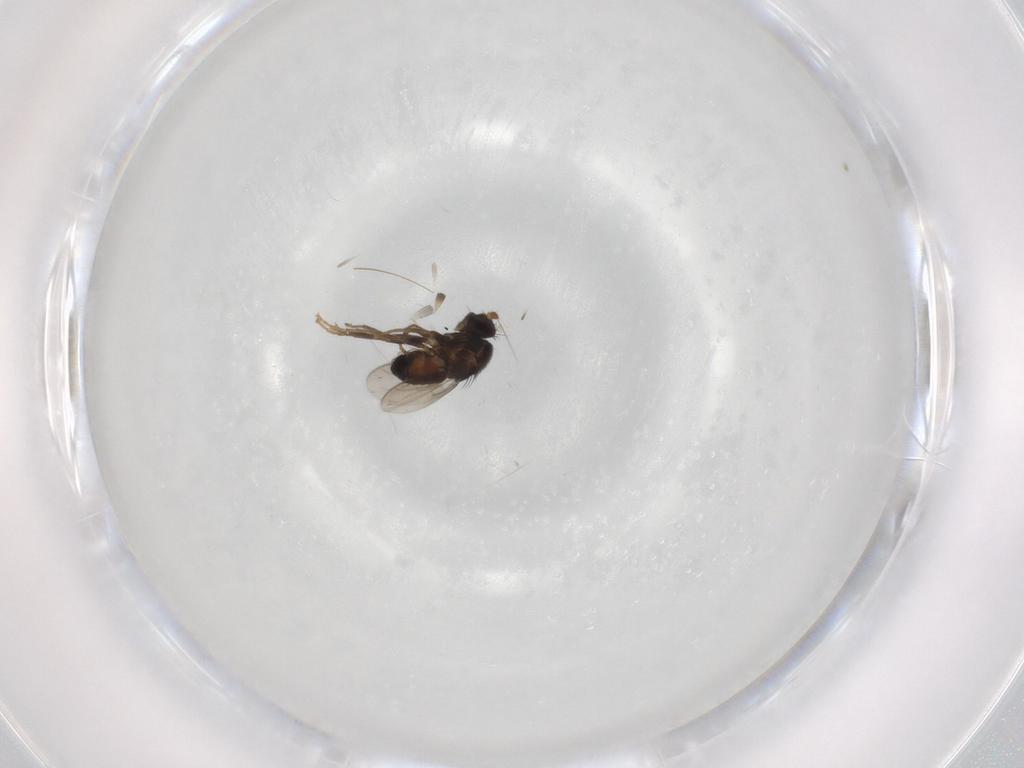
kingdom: Animalia
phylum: Arthropoda
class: Insecta
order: Diptera
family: Sphaeroceridae
